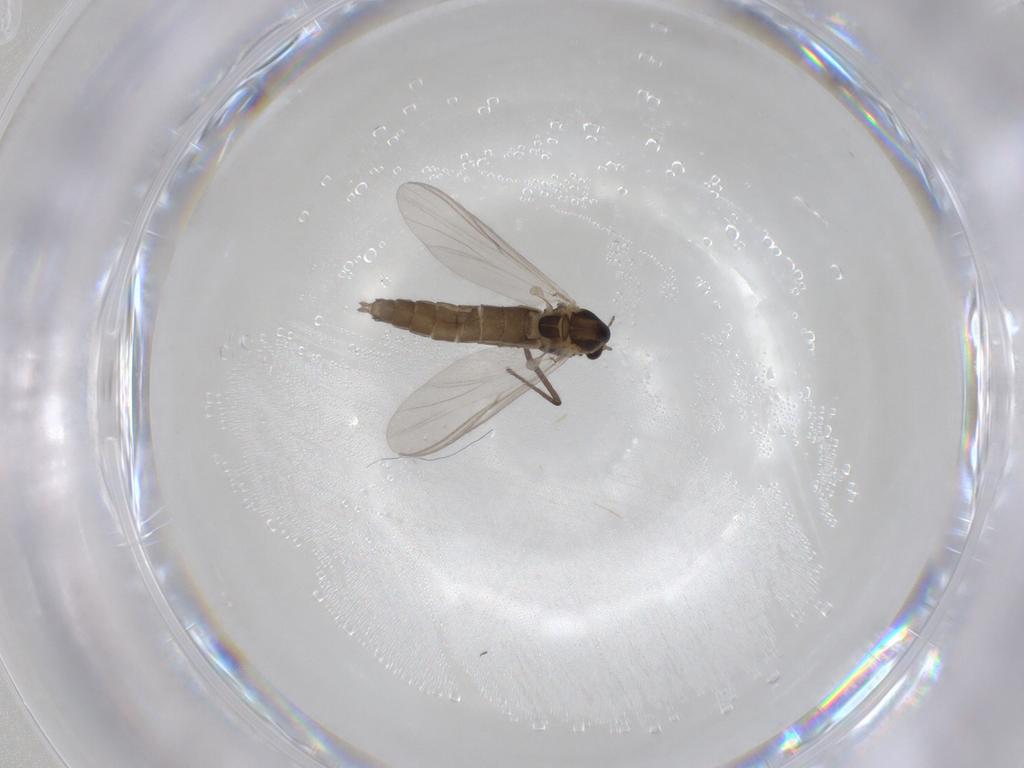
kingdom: Animalia
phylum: Arthropoda
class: Insecta
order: Diptera
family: Chironomidae
